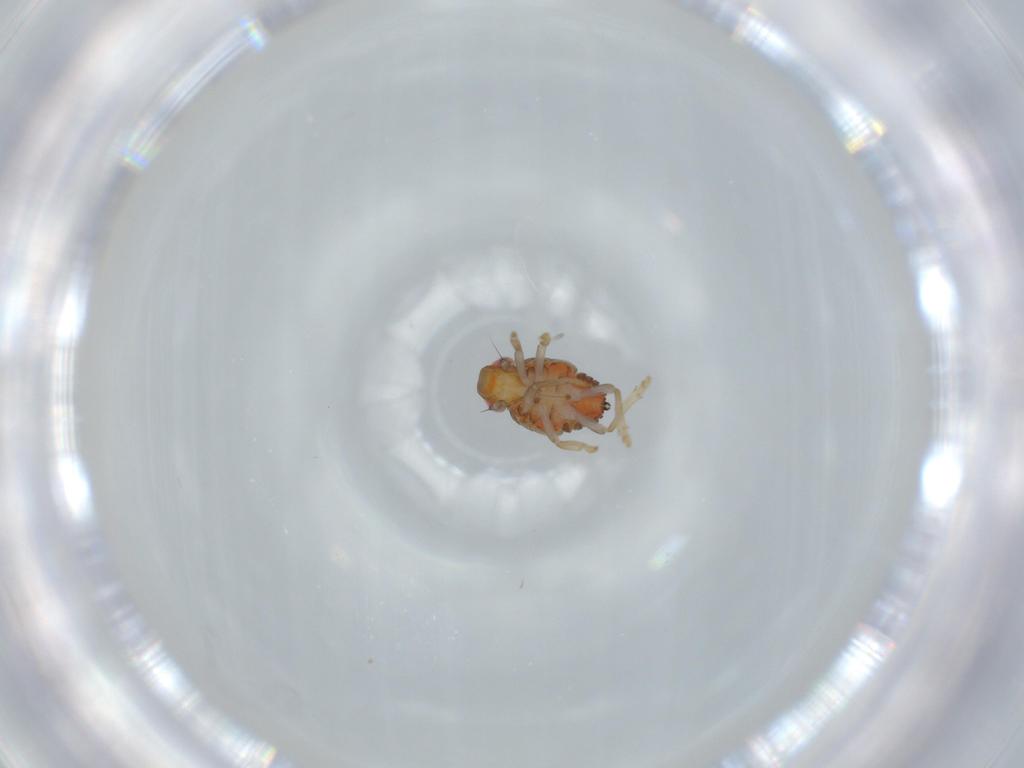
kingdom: Animalia
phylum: Arthropoda
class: Insecta
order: Hemiptera
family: Issidae
